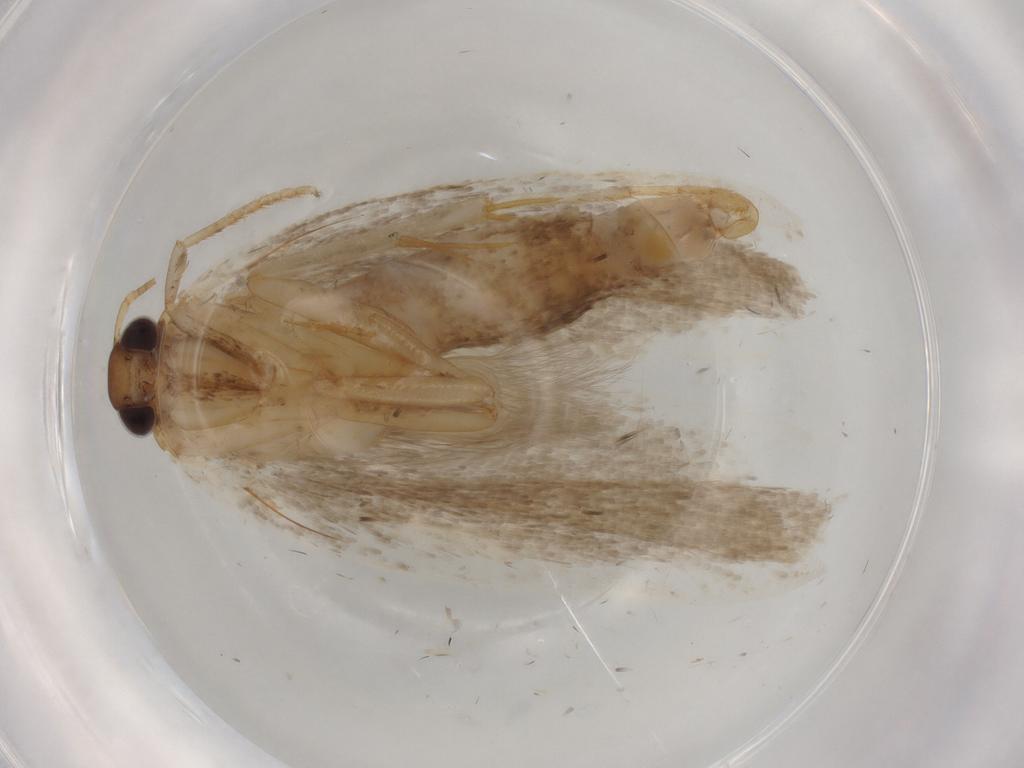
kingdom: Animalia
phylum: Arthropoda
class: Insecta
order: Lepidoptera
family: Gelechiidae
